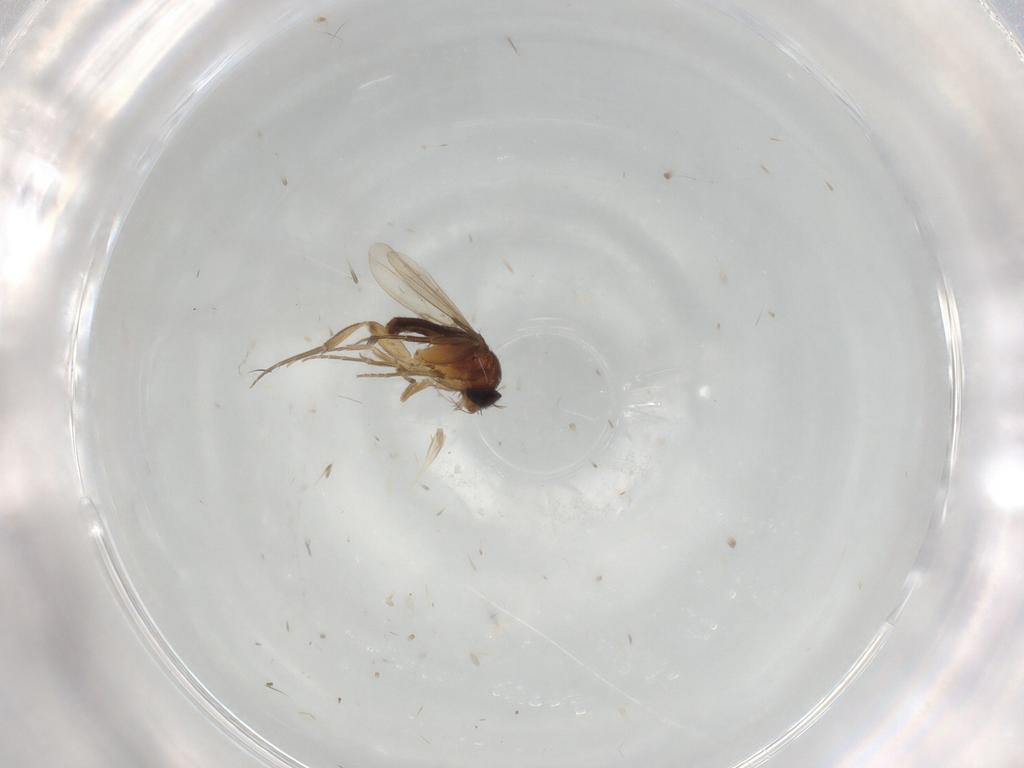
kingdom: Animalia
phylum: Arthropoda
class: Insecta
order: Diptera
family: Phoridae
